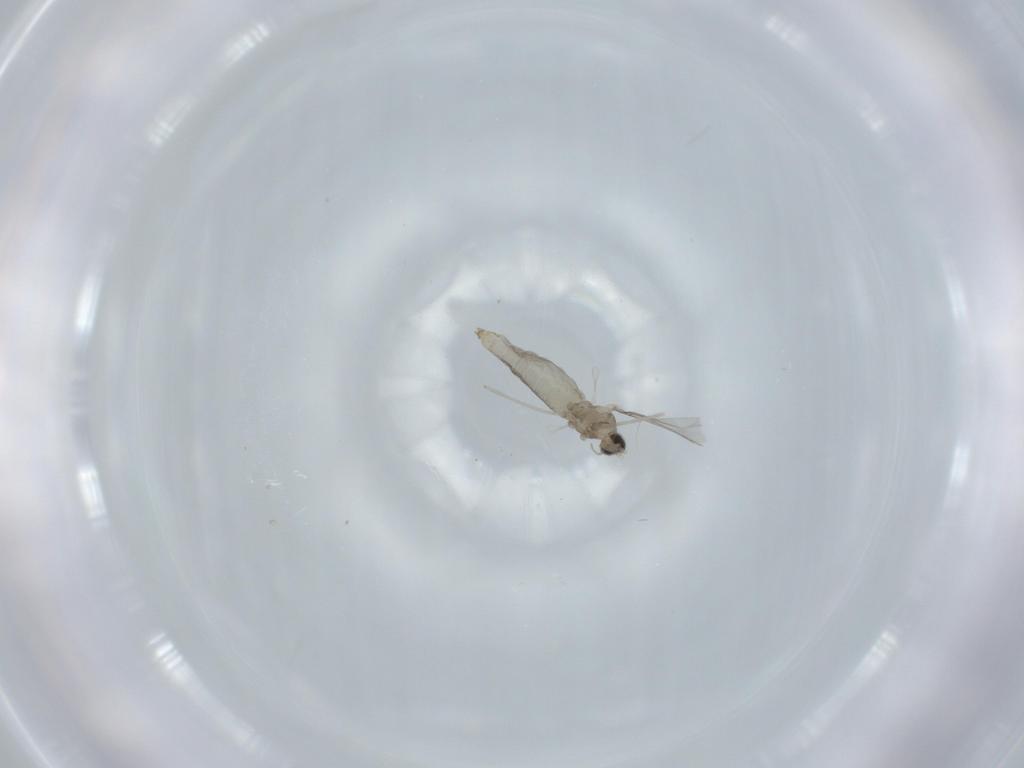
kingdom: Animalia
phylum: Arthropoda
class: Insecta
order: Diptera
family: Cecidomyiidae
